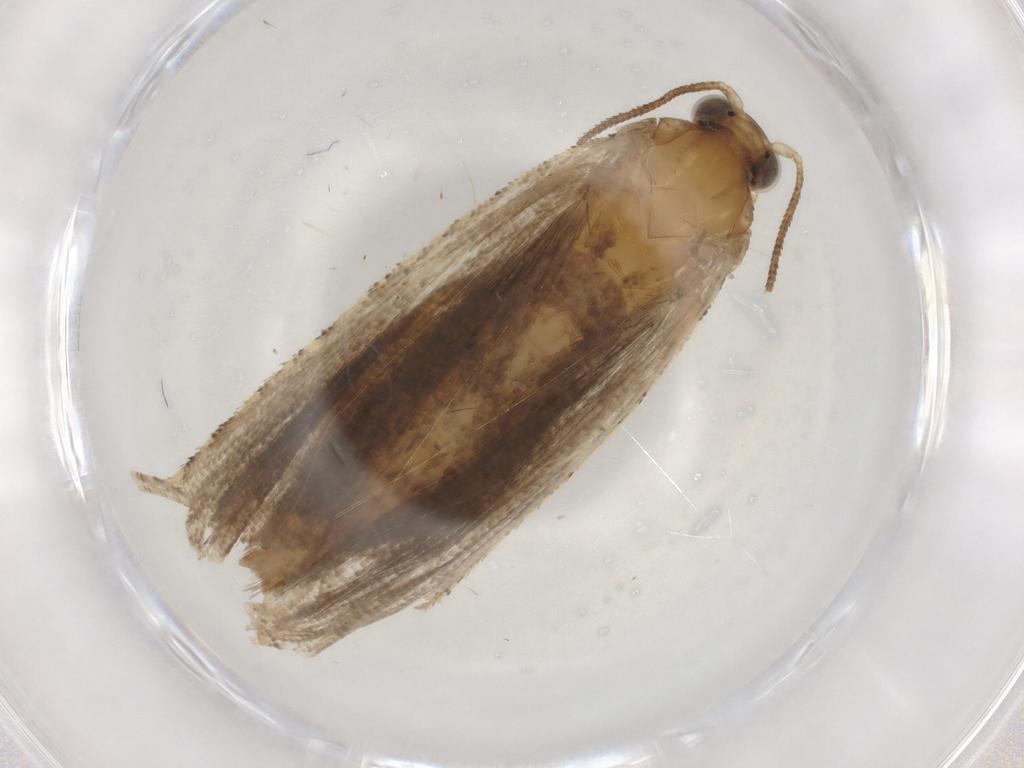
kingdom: Animalia
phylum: Arthropoda
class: Insecta
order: Lepidoptera
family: Tortricidae
